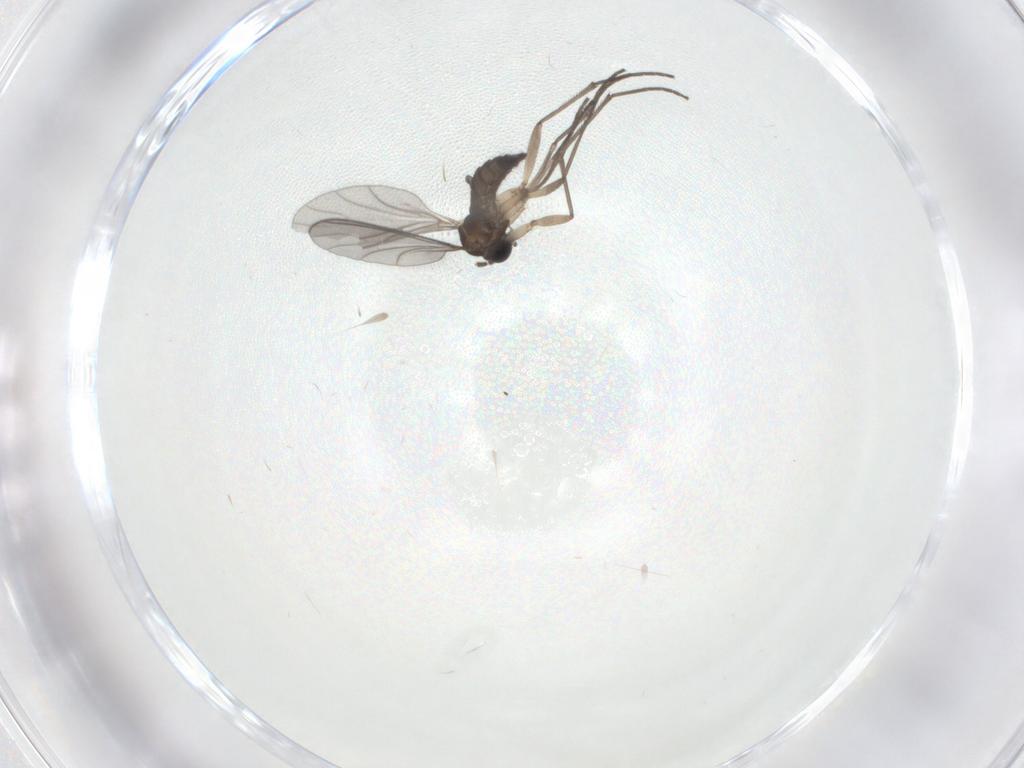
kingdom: Animalia
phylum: Arthropoda
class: Insecta
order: Diptera
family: Sciaridae
